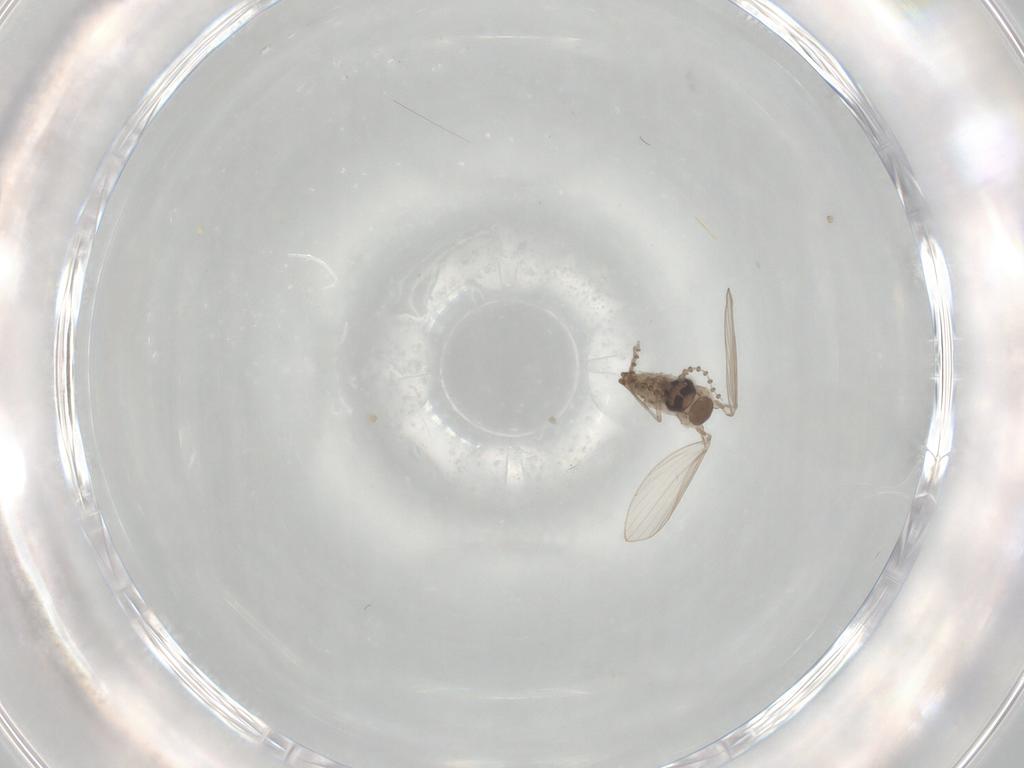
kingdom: Animalia
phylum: Arthropoda
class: Insecta
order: Diptera
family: Psychodidae
